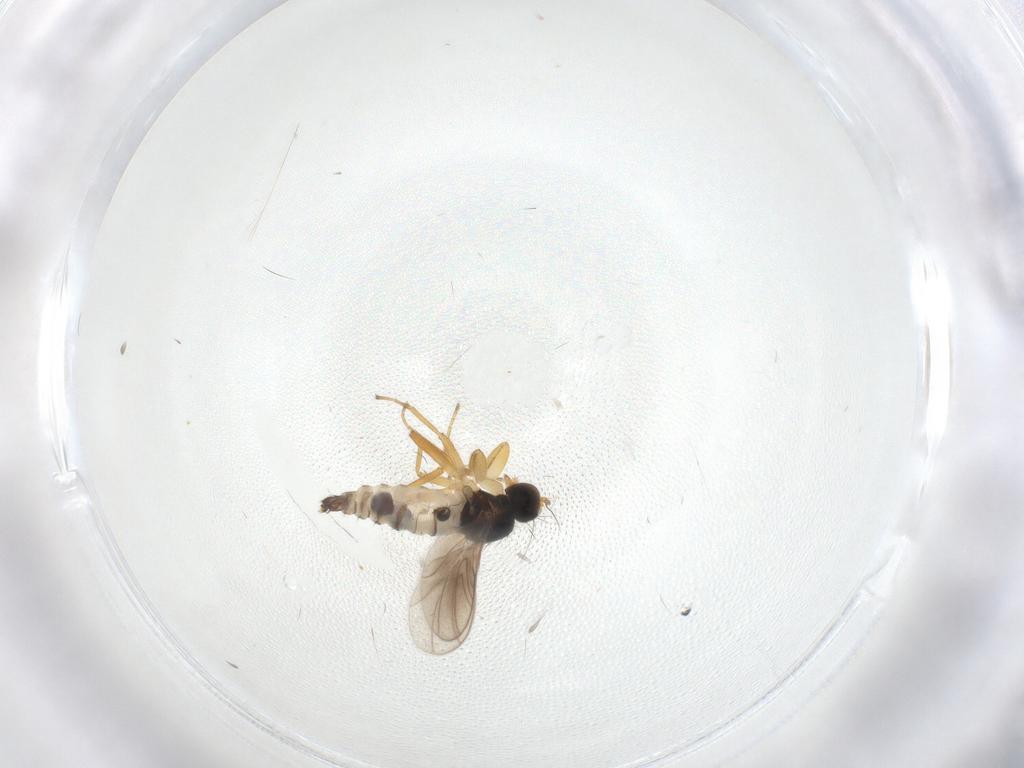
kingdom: Animalia
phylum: Arthropoda
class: Insecta
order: Diptera
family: Hybotidae
